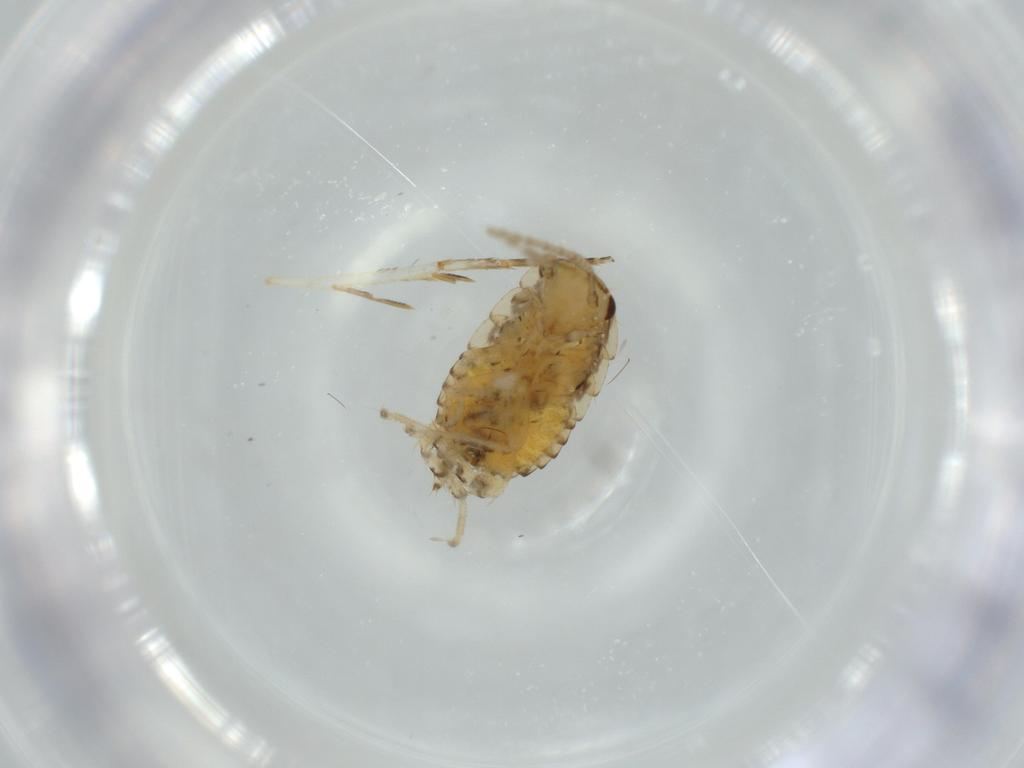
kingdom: Animalia
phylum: Arthropoda
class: Insecta
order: Blattodea
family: Ectobiidae
